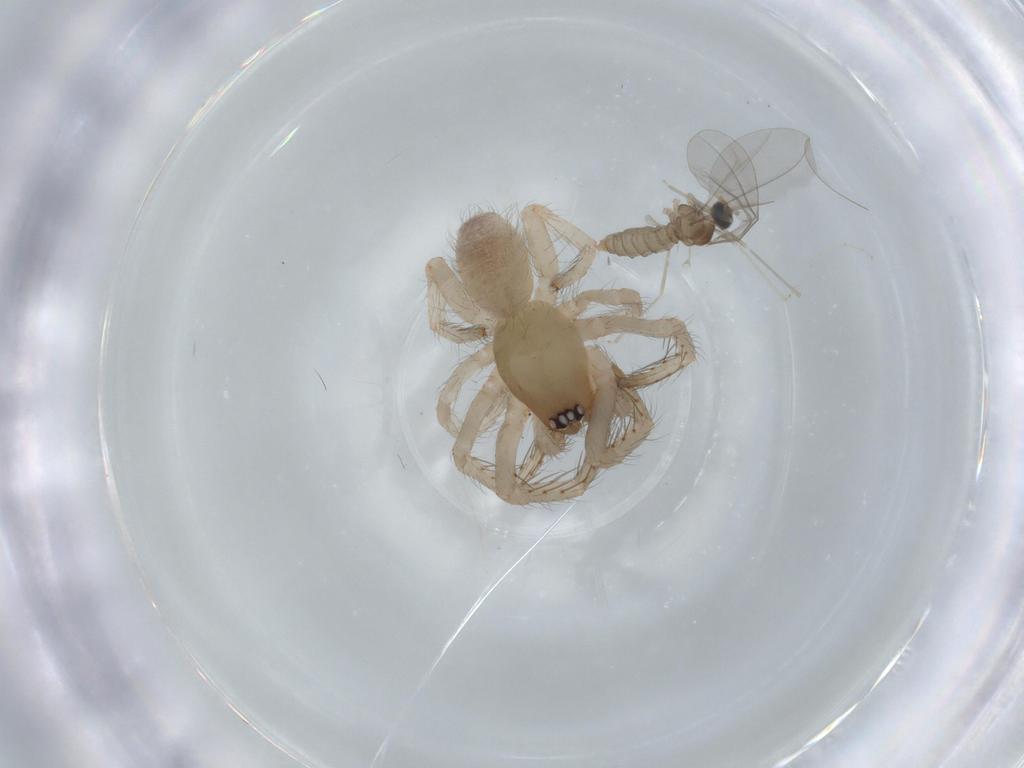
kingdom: Animalia
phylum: Arthropoda
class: Insecta
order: Diptera
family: Cecidomyiidae
